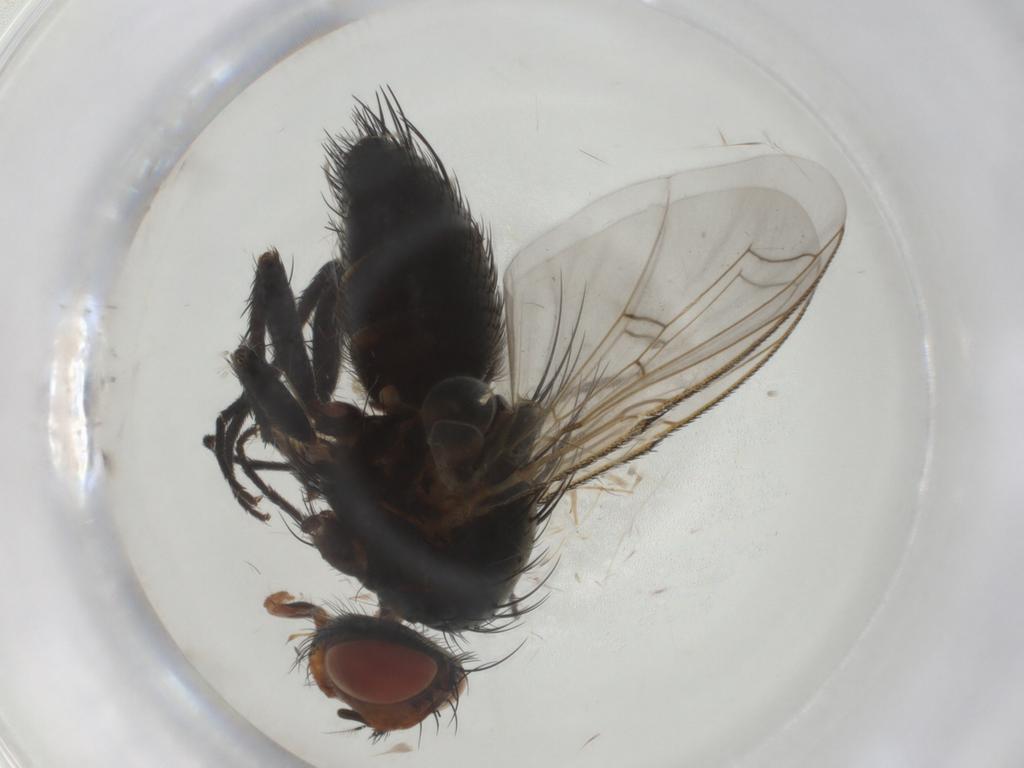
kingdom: Animalia
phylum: Arthropoda
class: Insecta
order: Diptera
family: Tachinidae
